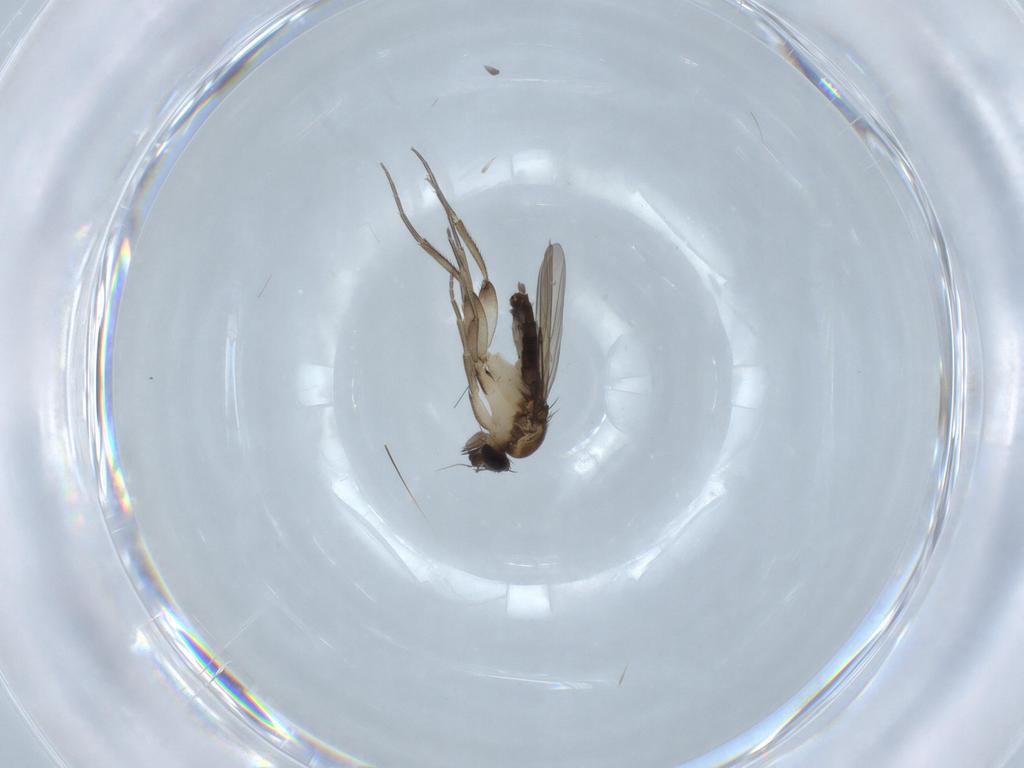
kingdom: Animalia
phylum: Arthropoda
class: Insecta
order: Diptera
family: Phoridae
